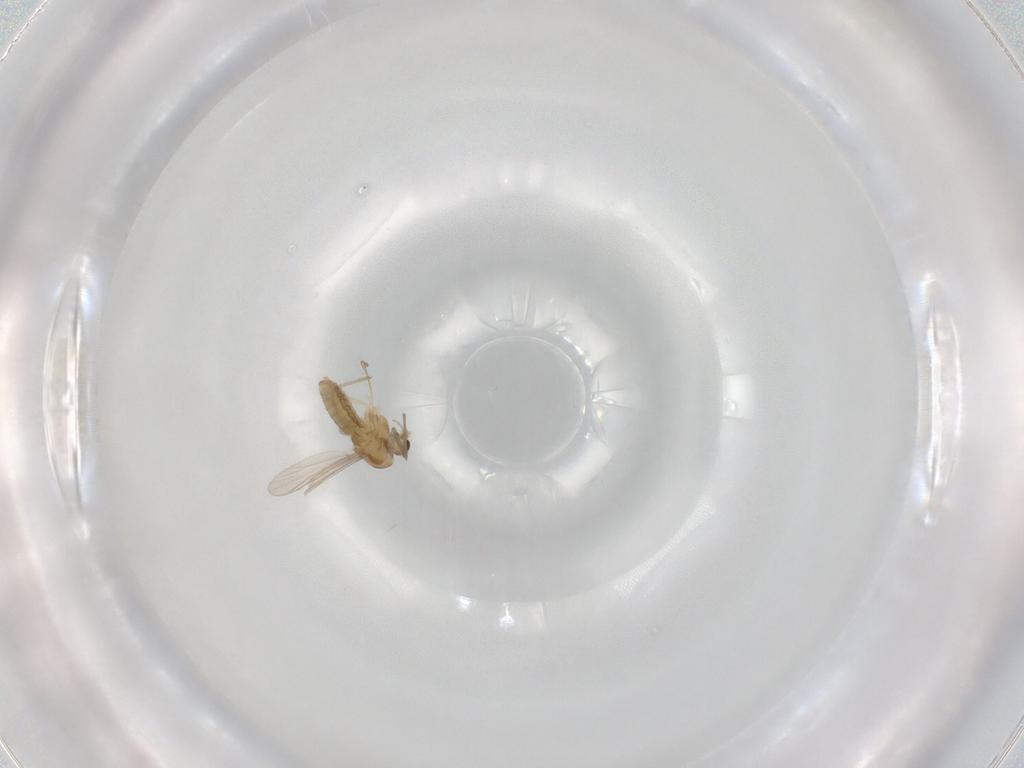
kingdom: Animalia
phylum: Arthropoda
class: Insecta
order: Diptera
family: Chironomidae
